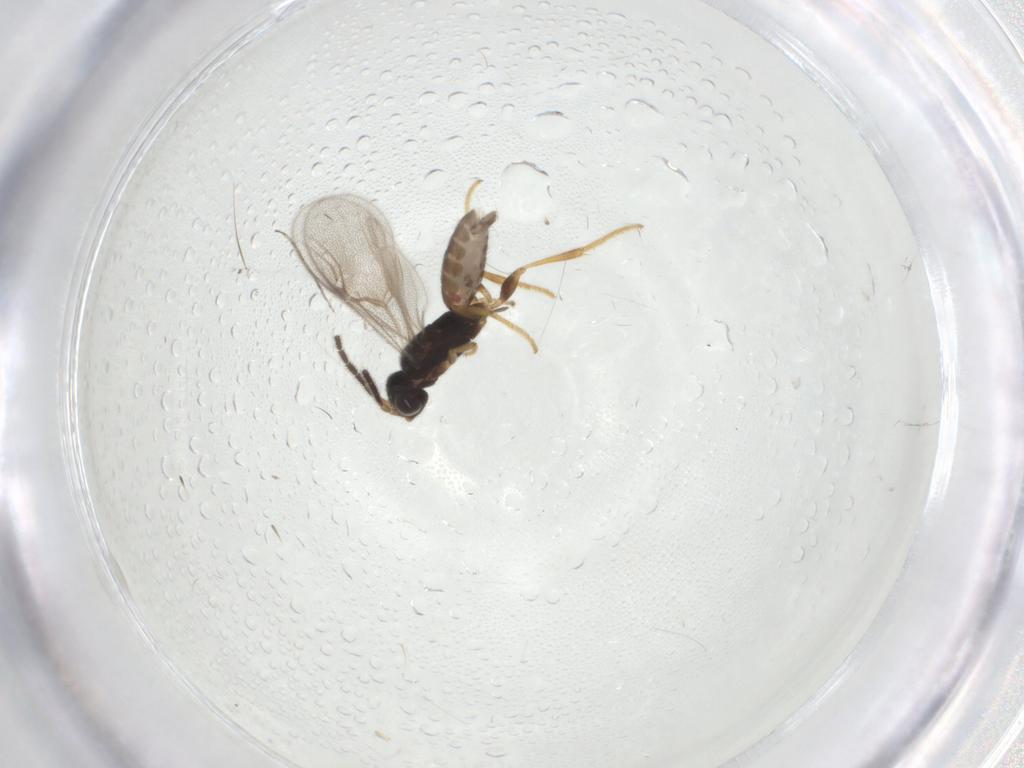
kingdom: Animalia
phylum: Arthropoda
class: Insecta
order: Hymenoptera
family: Dryinidae
